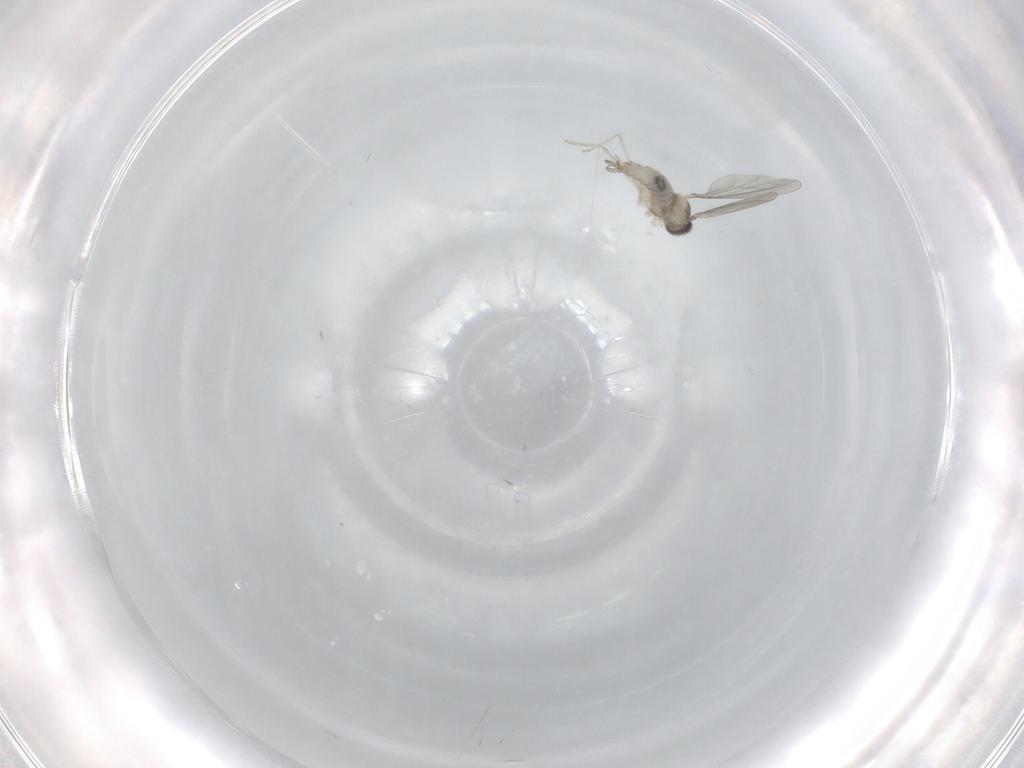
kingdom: Animalia
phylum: Arthropoda
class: Insecta
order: Diptera
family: Cecidomyiidae
